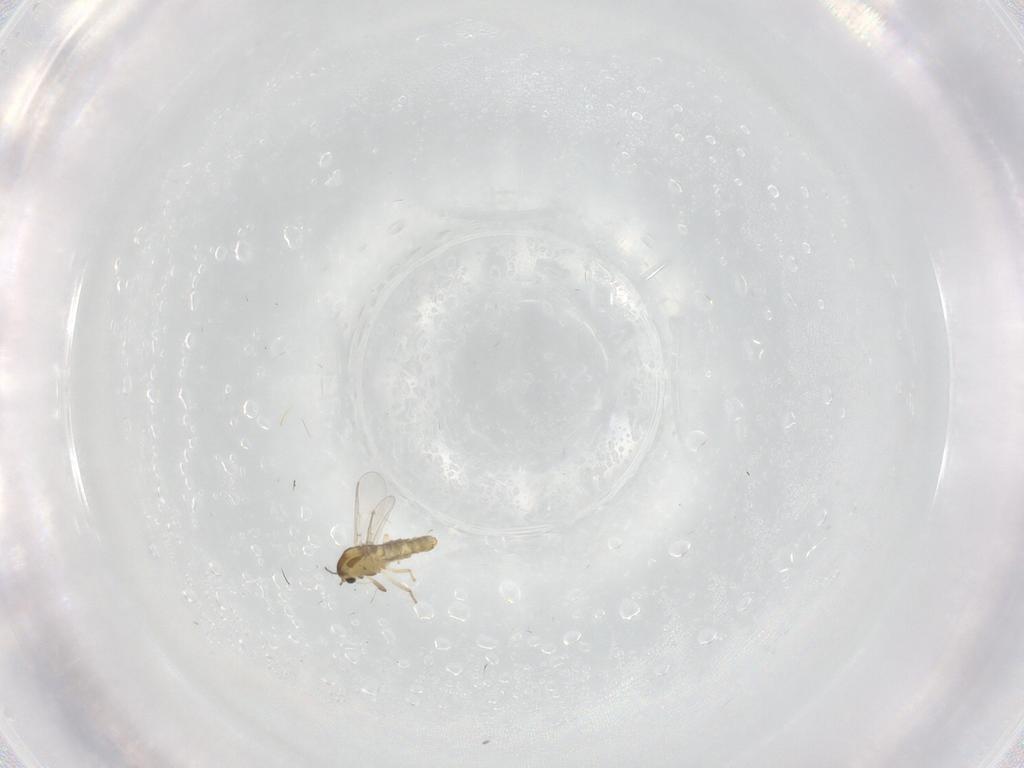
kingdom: Animalia
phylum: Arthropoda
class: Insecta
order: Diptera
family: Chironomidae
